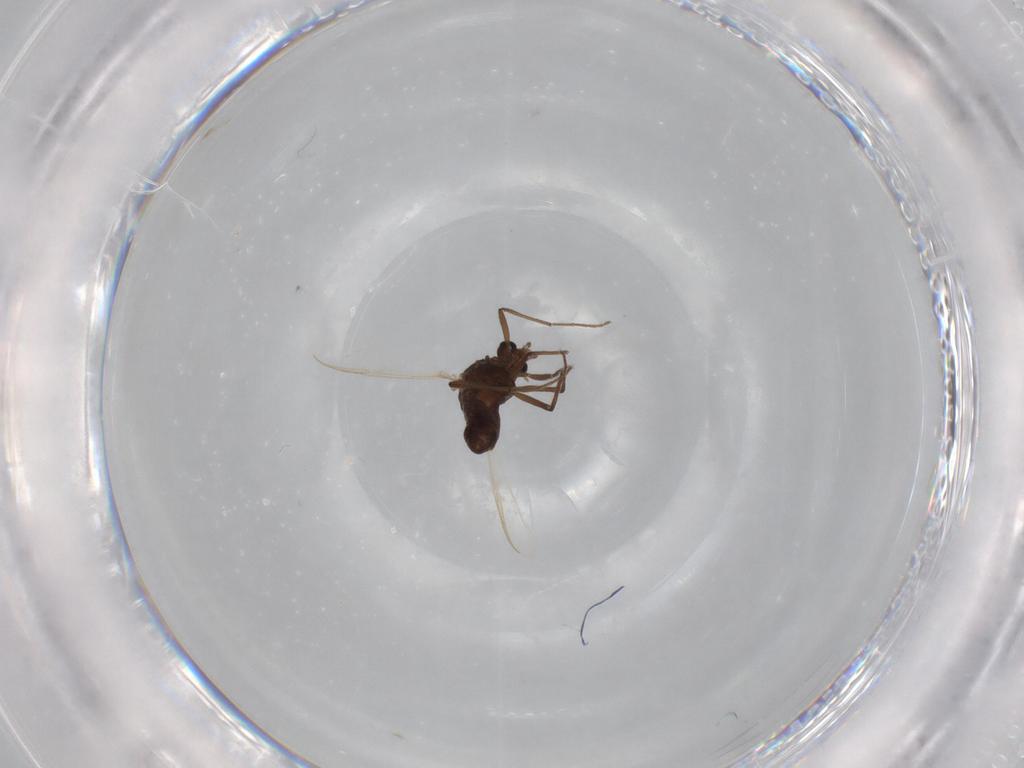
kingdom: Animalia
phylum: Arthropoda
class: Insecta
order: Diptera
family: Chironomidae
